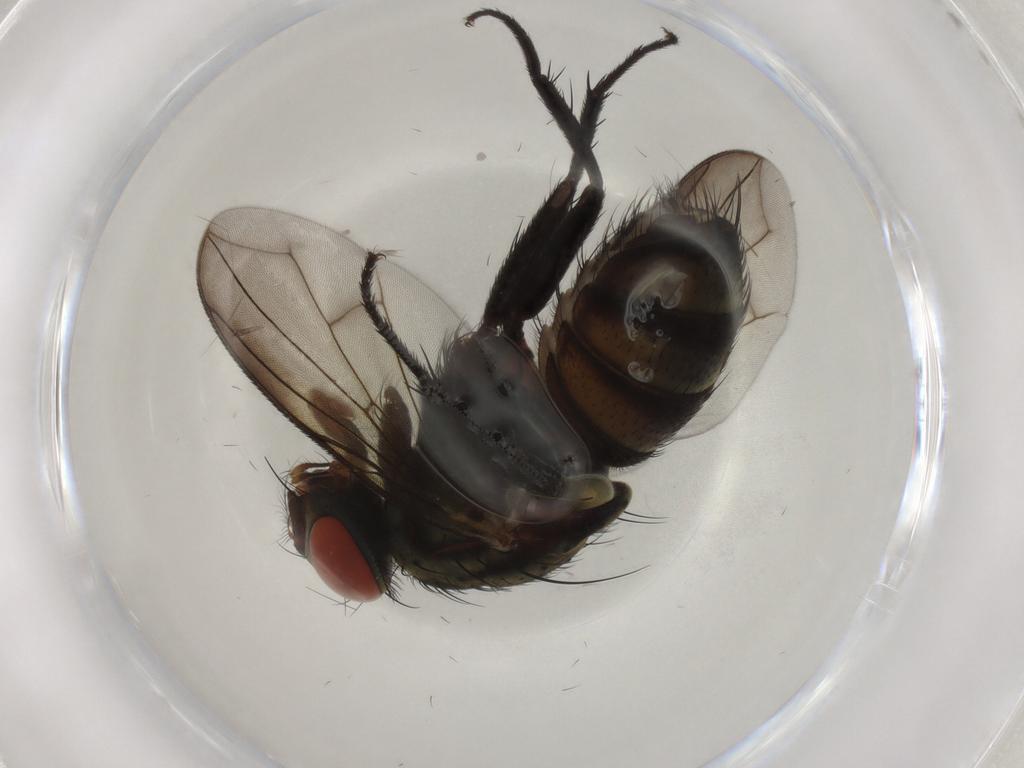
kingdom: Animalia
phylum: Arthropoda
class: Insecta
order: Diptera
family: Sarcophagidae
